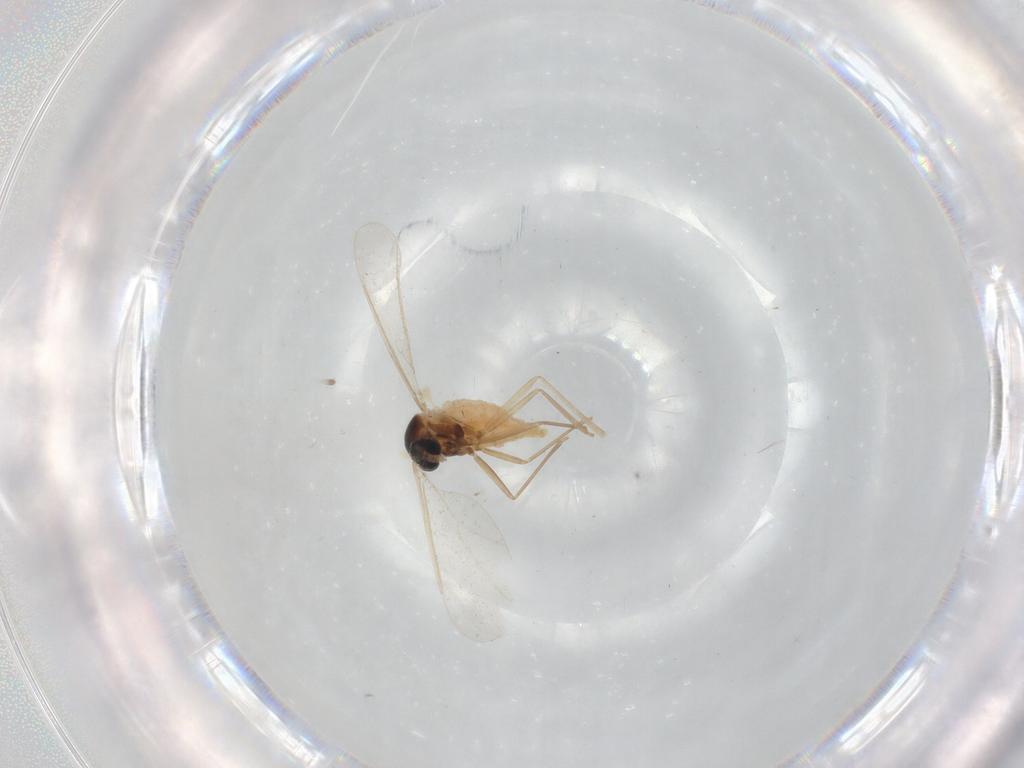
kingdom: Animalia
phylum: Arthropoda
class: Insecta
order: Diptera
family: Cecidomyiidae
